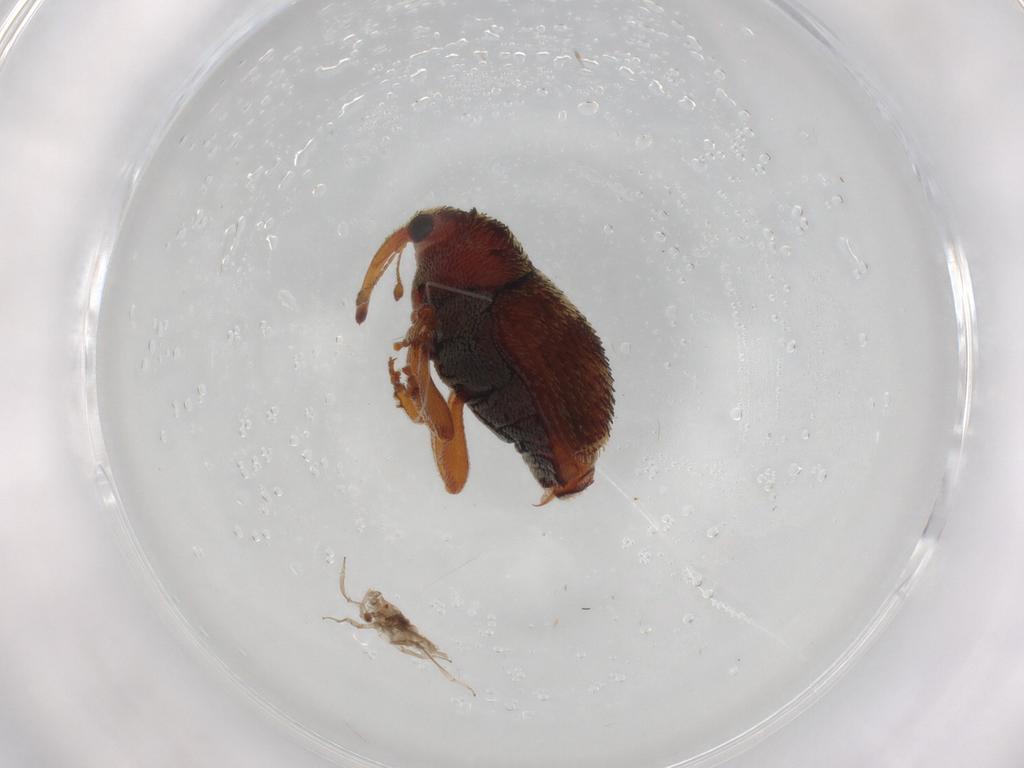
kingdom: Animalia
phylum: Arthropoda
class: Insecta
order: Coleoptera
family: Curculionidae
